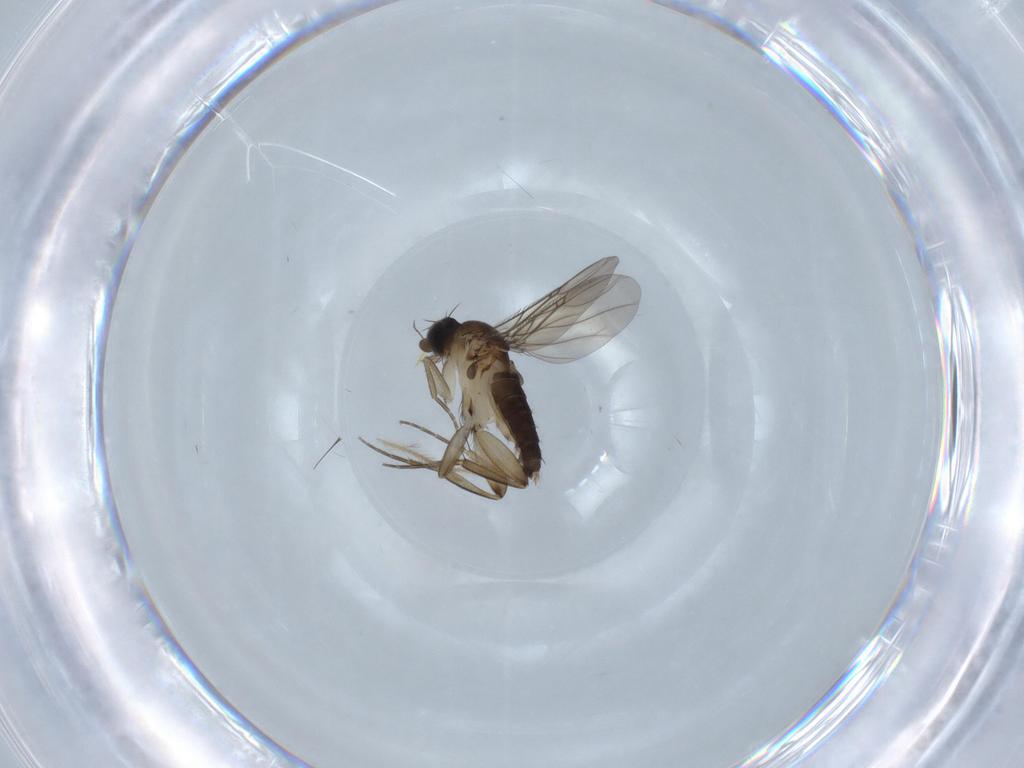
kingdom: Animalia
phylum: Arthropoda
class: Insecta
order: Diptera
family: Phoridae
